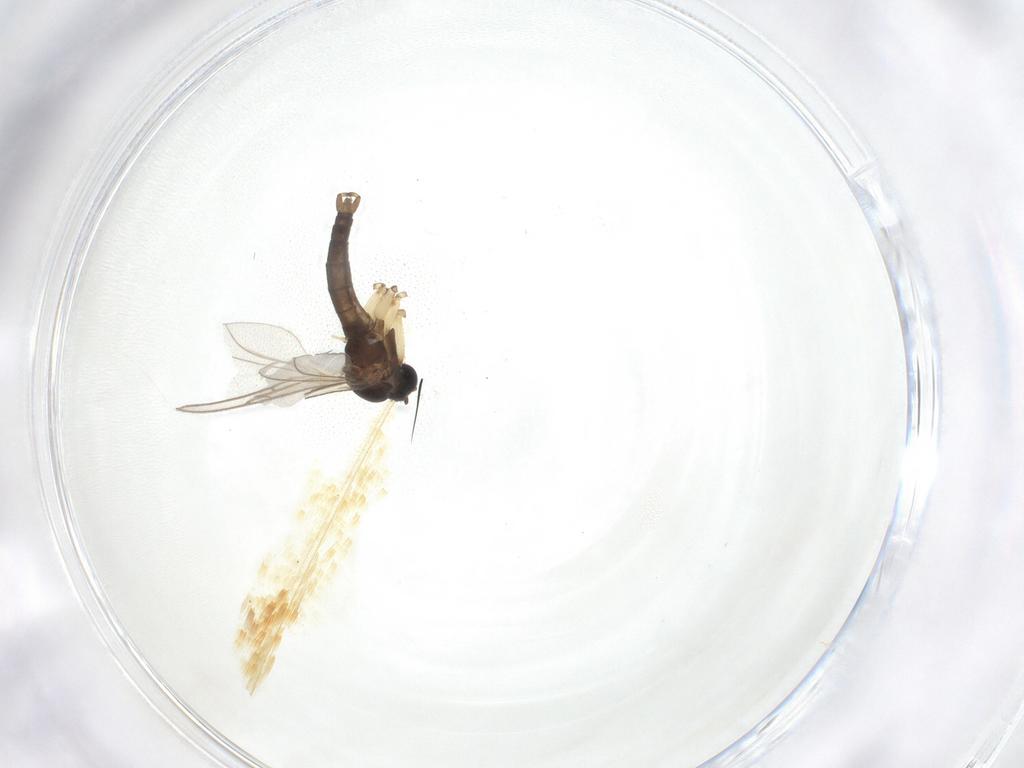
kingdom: Animalia
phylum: Arthropoda
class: Insecta
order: Diptera
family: Sciaridae
